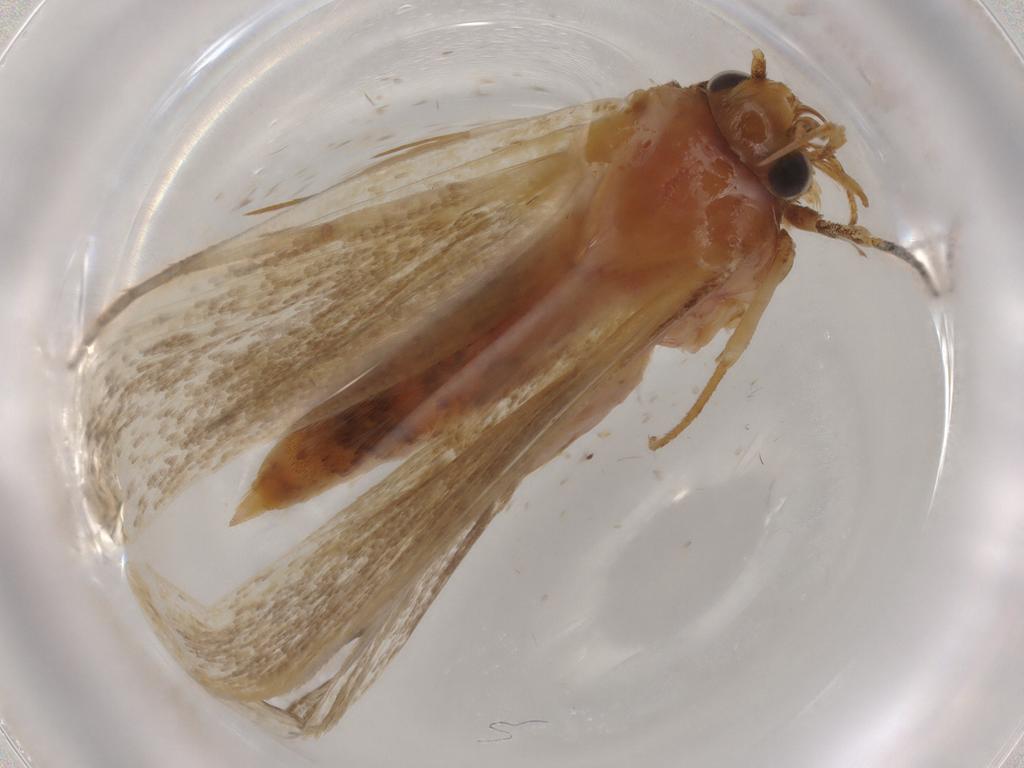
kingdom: Animalia
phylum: Arthropoda
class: Insecta
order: Lepidoptera
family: Oecophoridae
